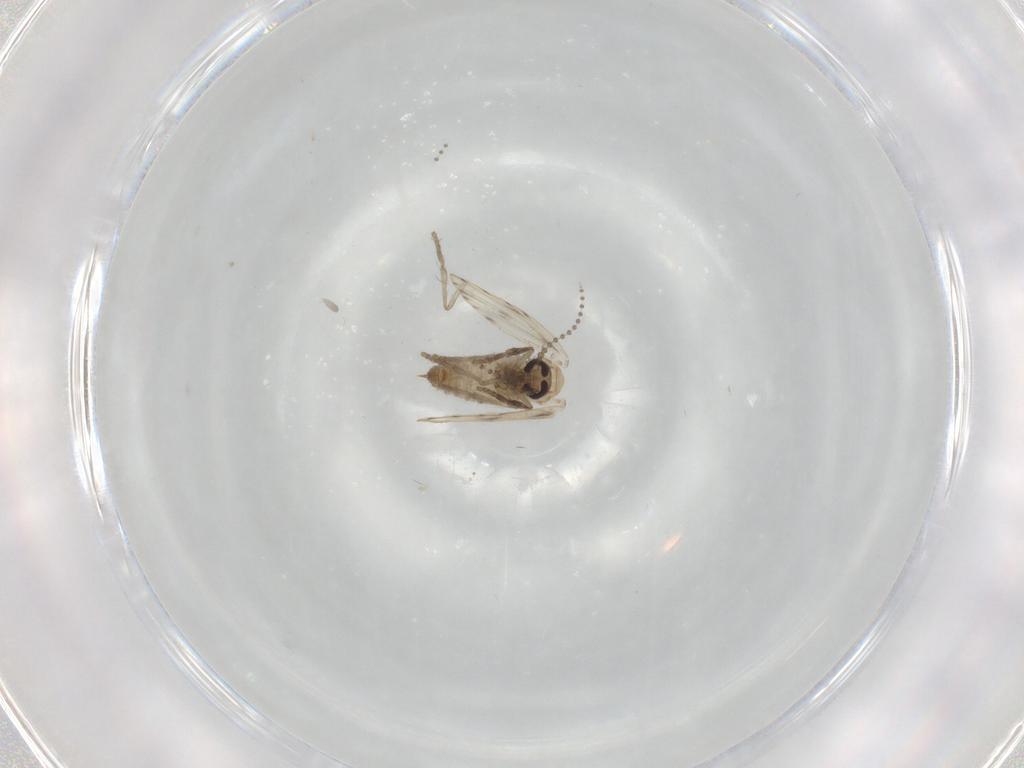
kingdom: Animalia
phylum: Arthropoda
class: Insecta
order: Diptera
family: Psychodidae
